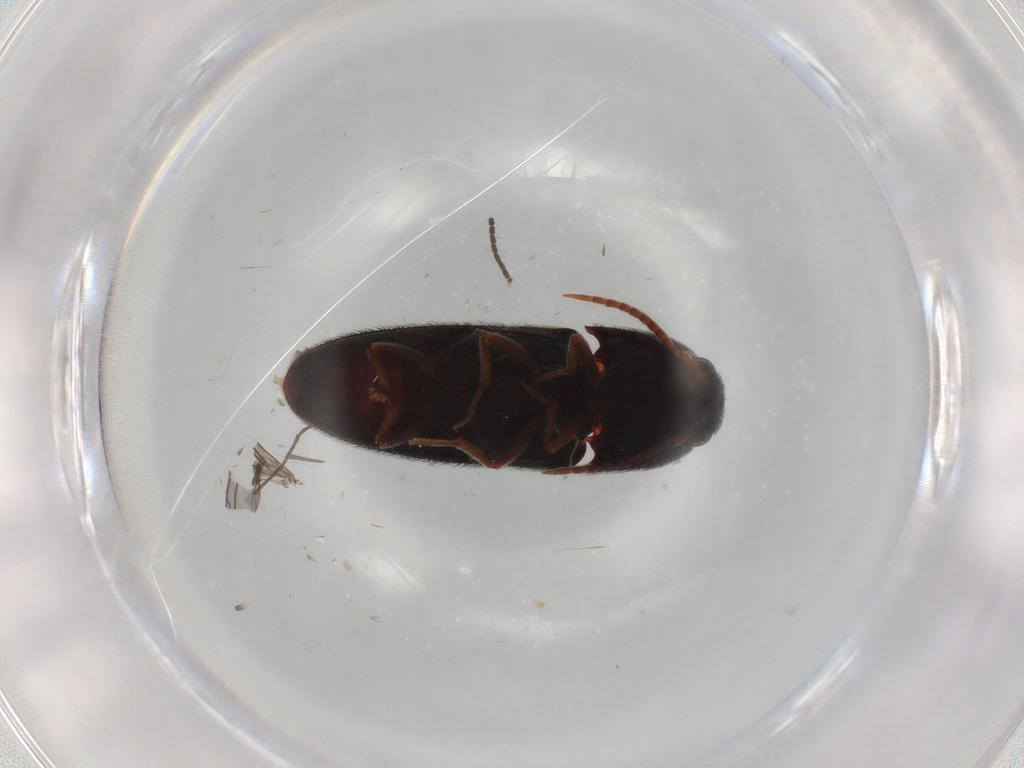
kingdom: Animalia
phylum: Arthropoda
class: Insecta
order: Coleoptera
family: Eucnemidae
